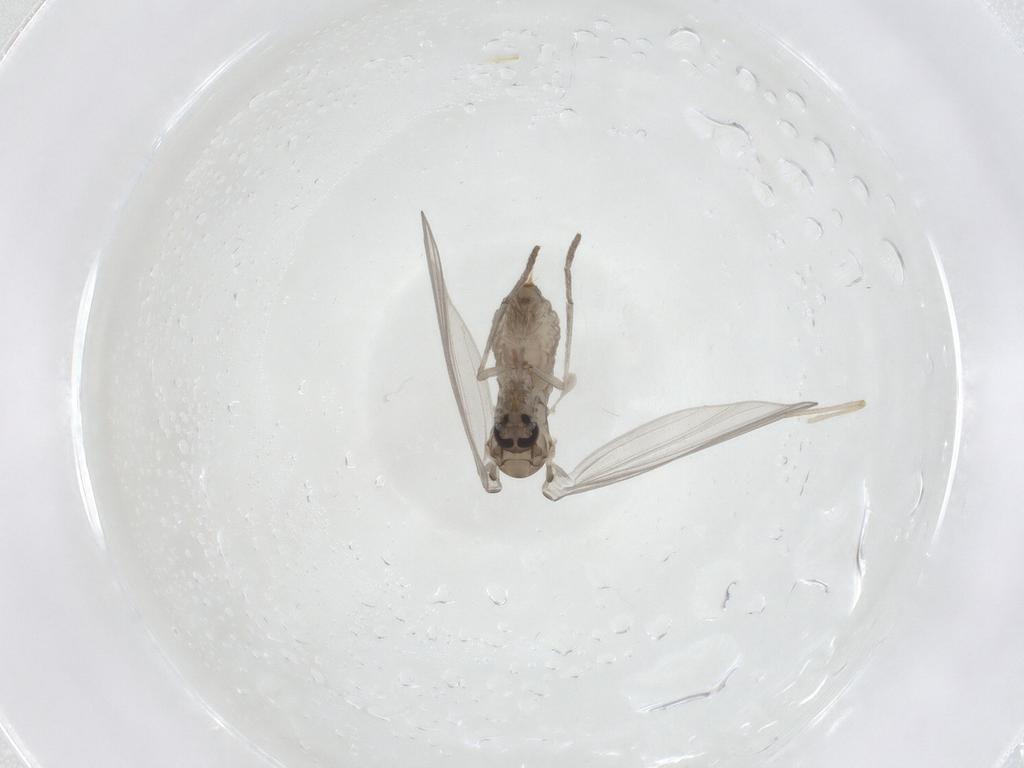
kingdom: Animalia
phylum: Arthropoda
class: Insecta
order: Diptera
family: Psychodidae
